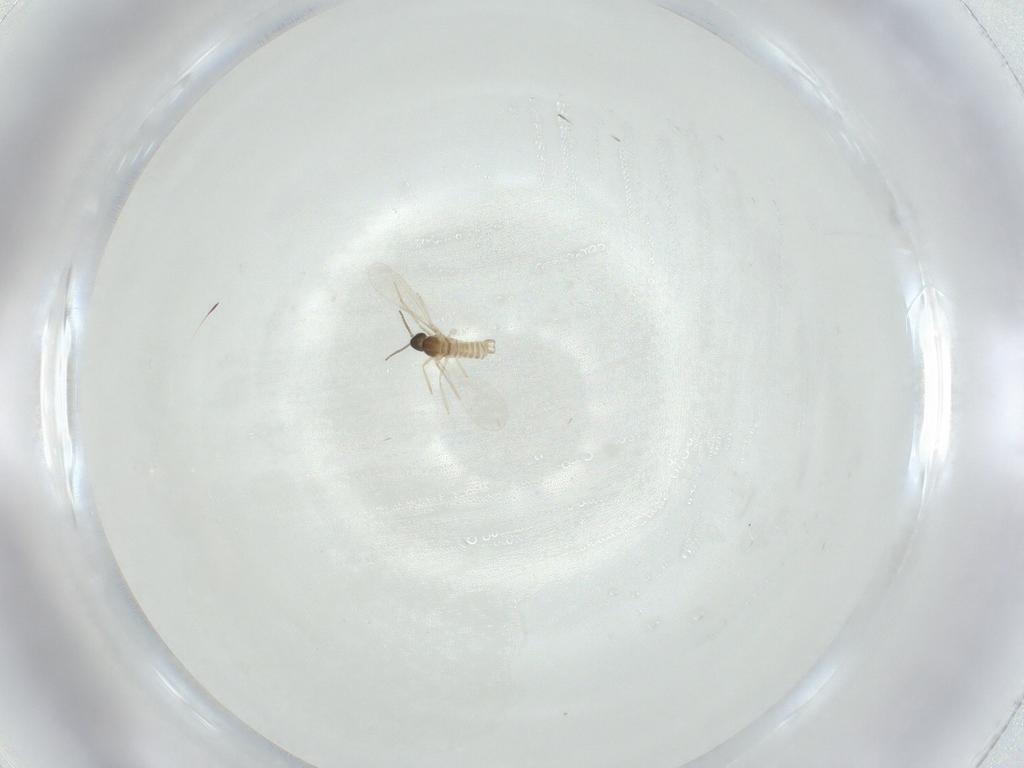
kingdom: Animalia
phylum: Arthropoda
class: Insecta
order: Diptera
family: Cecidomyiidae
